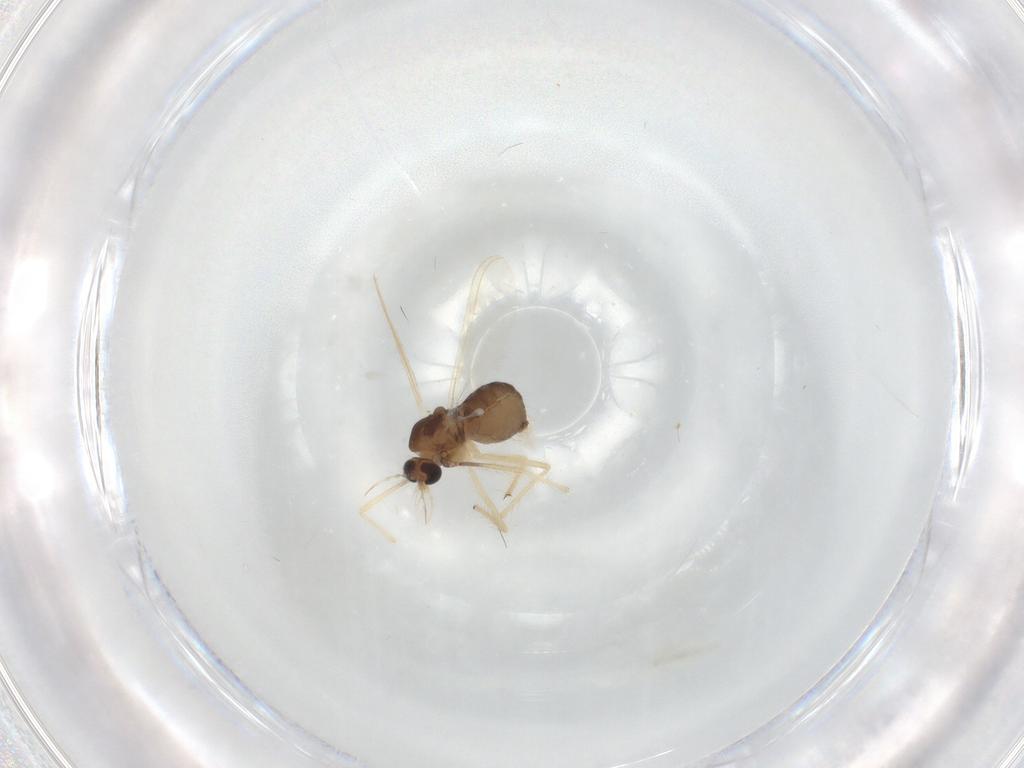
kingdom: Animalia
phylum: Arthropoda
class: Insecta
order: Diptera
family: Cecidomyiidae
